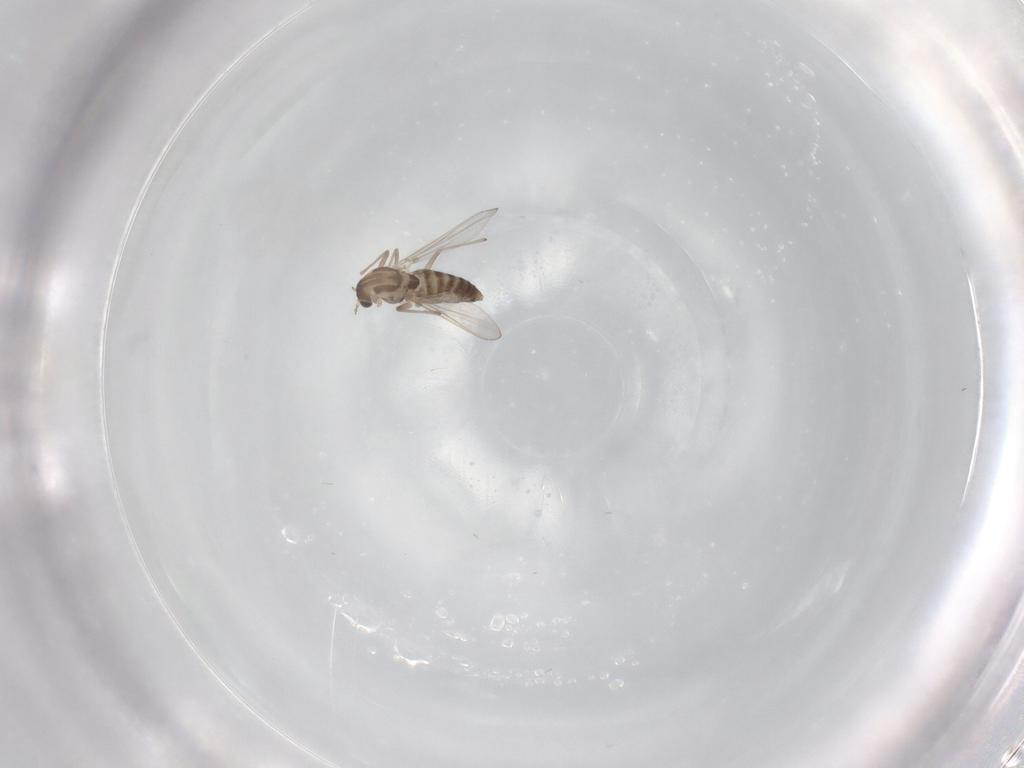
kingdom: Animalia
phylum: Arthropoda
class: Insecta
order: Diptera
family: Chironomidae
